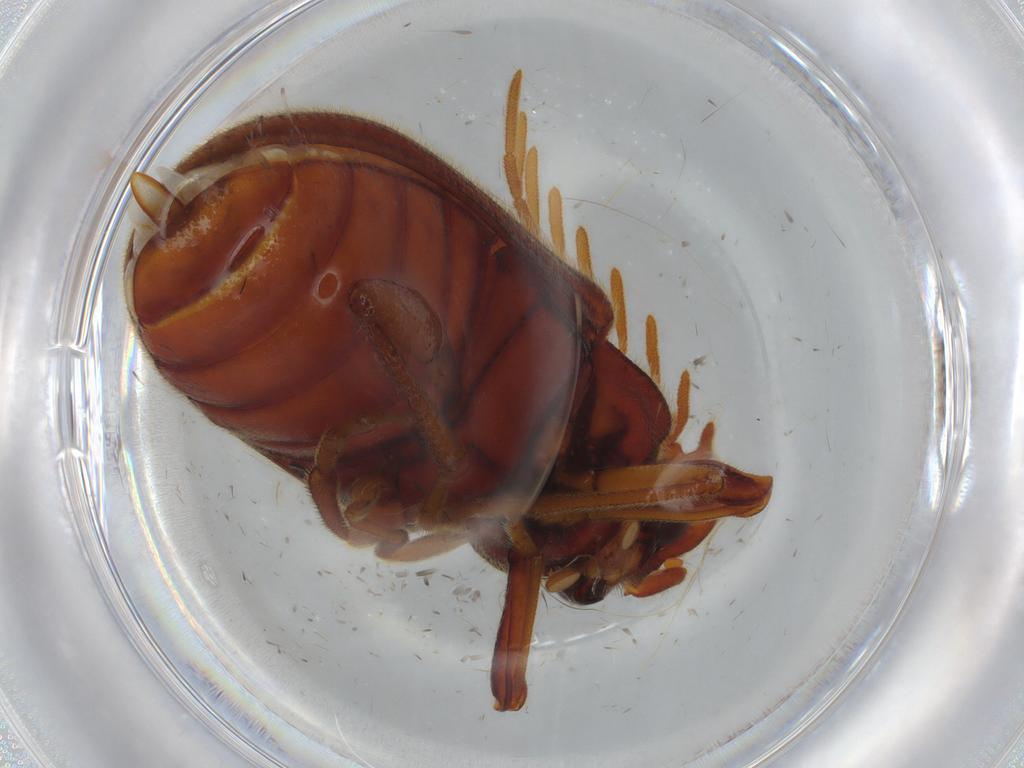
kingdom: Animalia
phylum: Arthropoda
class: Insecta
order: Coleoptera
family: Cerophytidae
